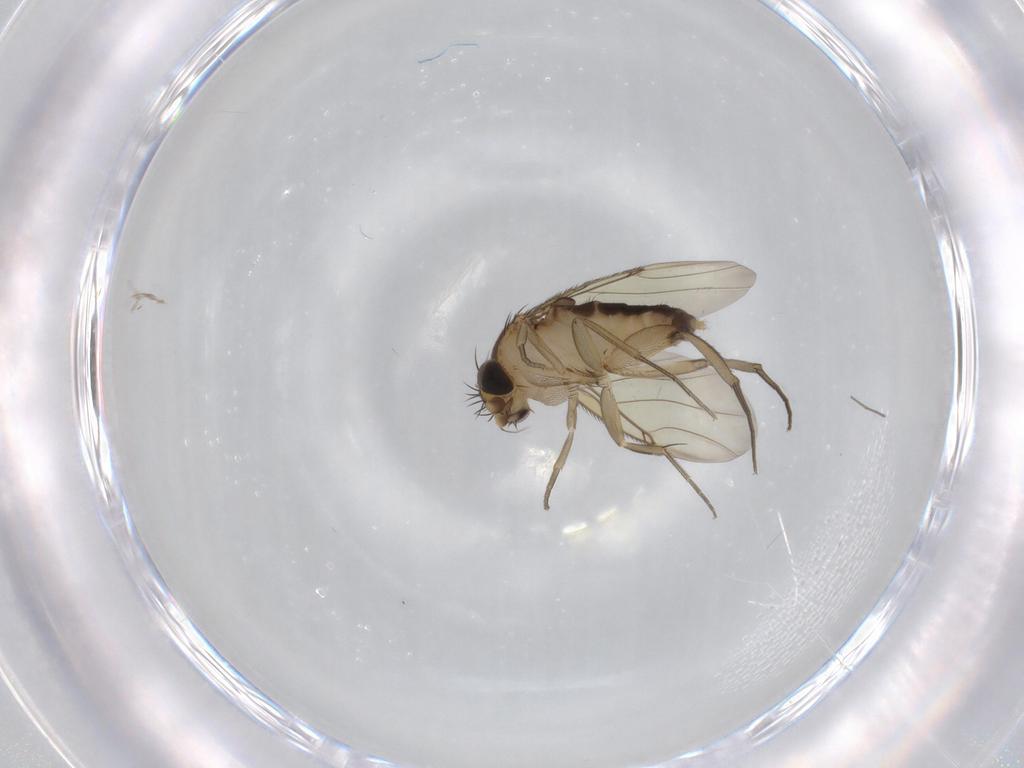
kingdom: Animalia
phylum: Arthropoda
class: Insecta
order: Diptera
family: Phoridae
